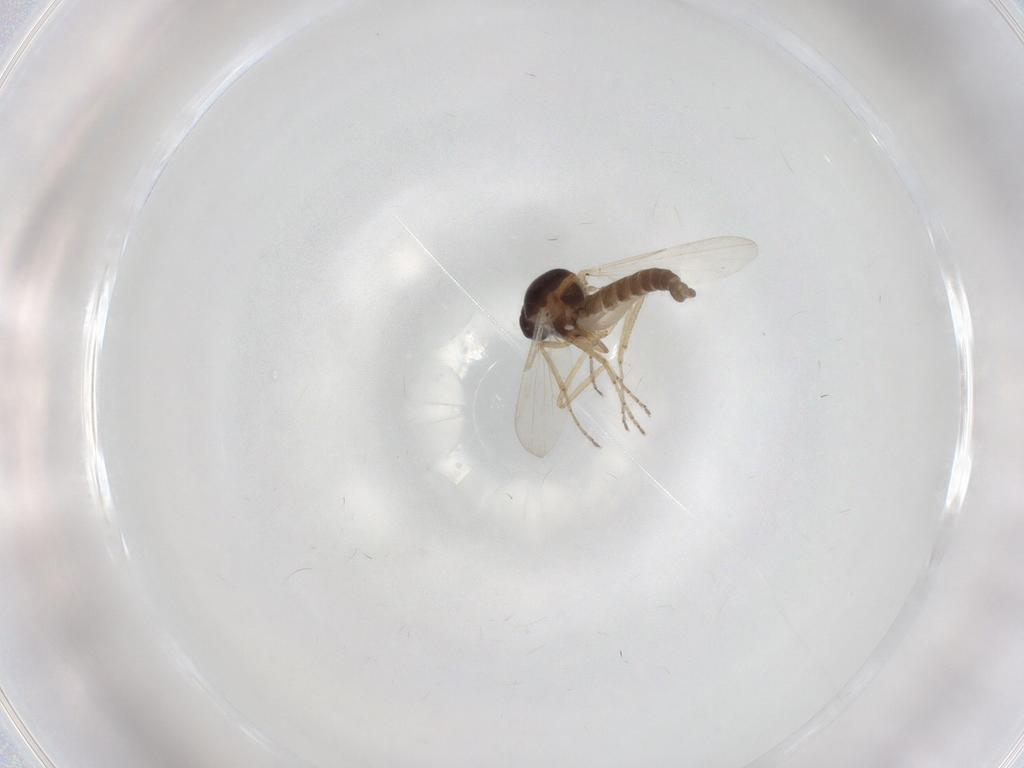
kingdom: Animalia
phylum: Arthropoda
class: Insecta
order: Diptera
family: Ceratopogonidae
